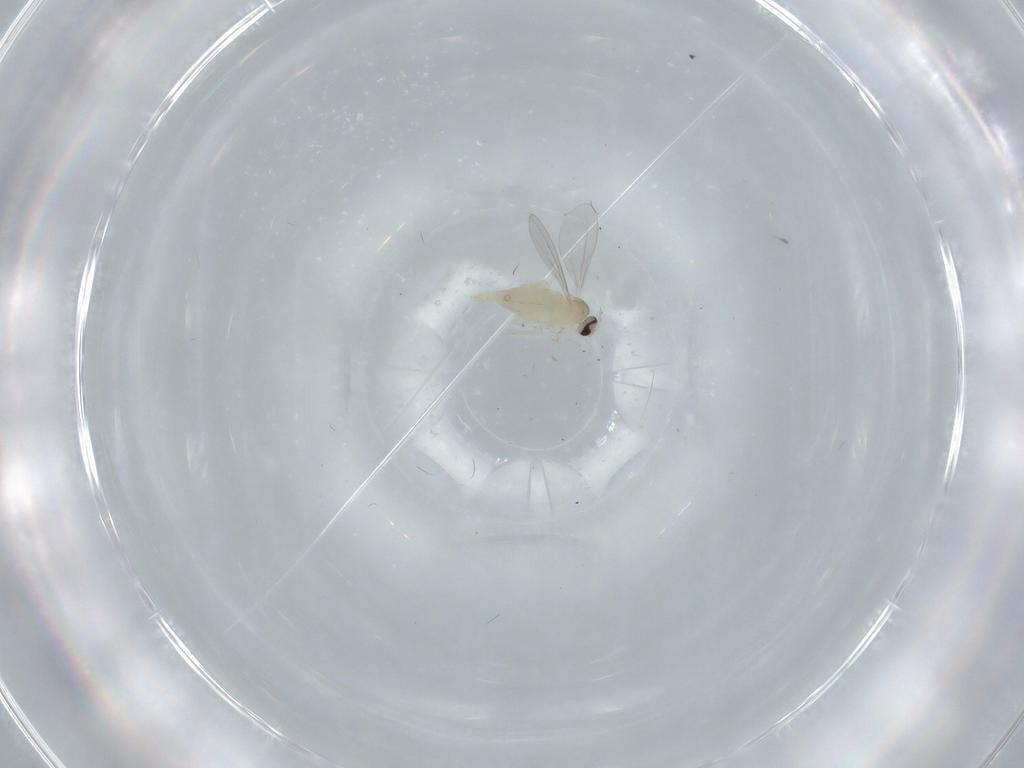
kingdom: Animalia
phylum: Arthropoda
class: Insecta
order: Diptera
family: Cecidomyiidae
